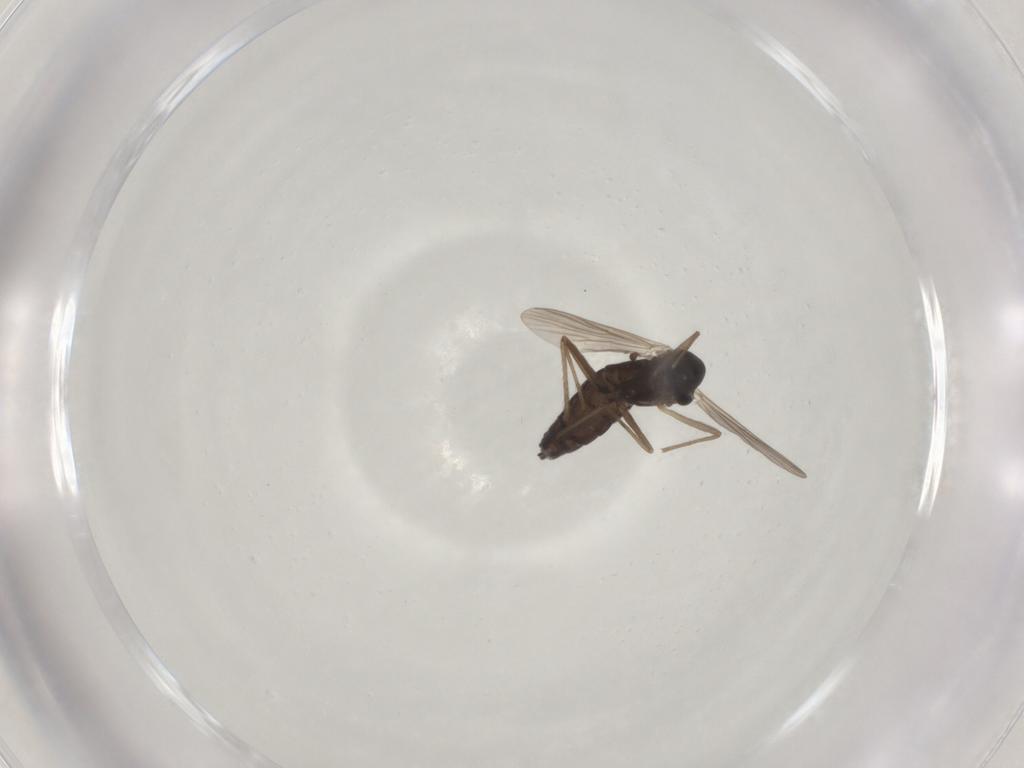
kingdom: Animalia
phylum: Arthropoda
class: Insecta
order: Diptera
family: Chironomidae
